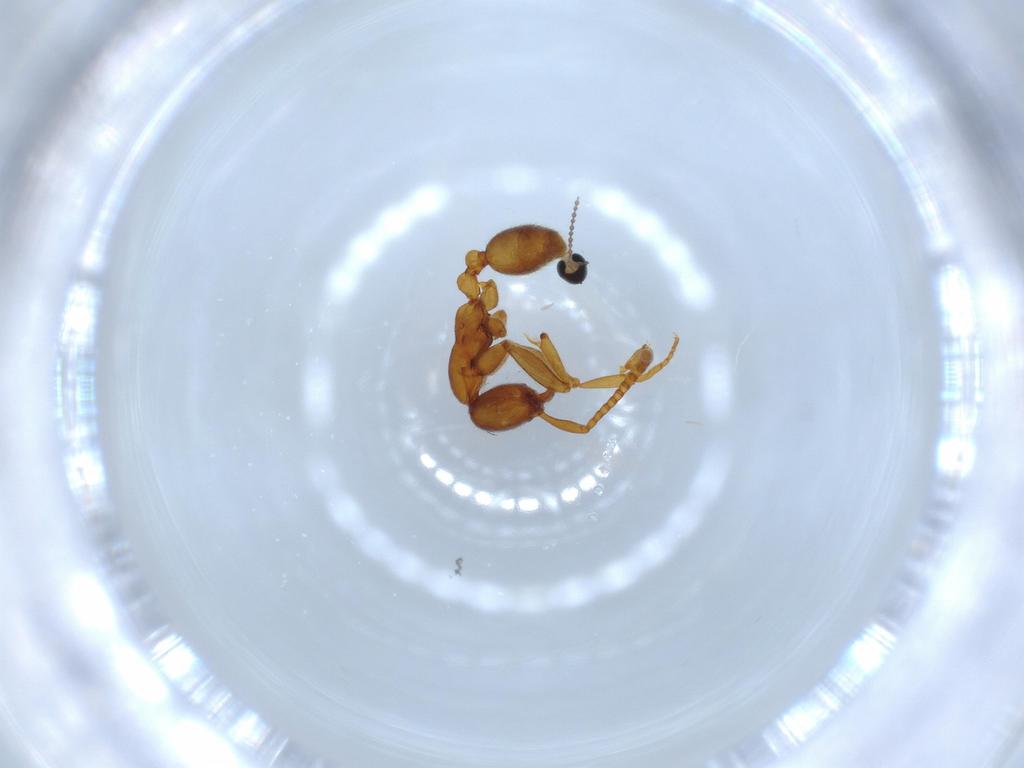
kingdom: Animalia
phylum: Arthropoda
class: Insecta
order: Hymenoptera
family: Formicidae
